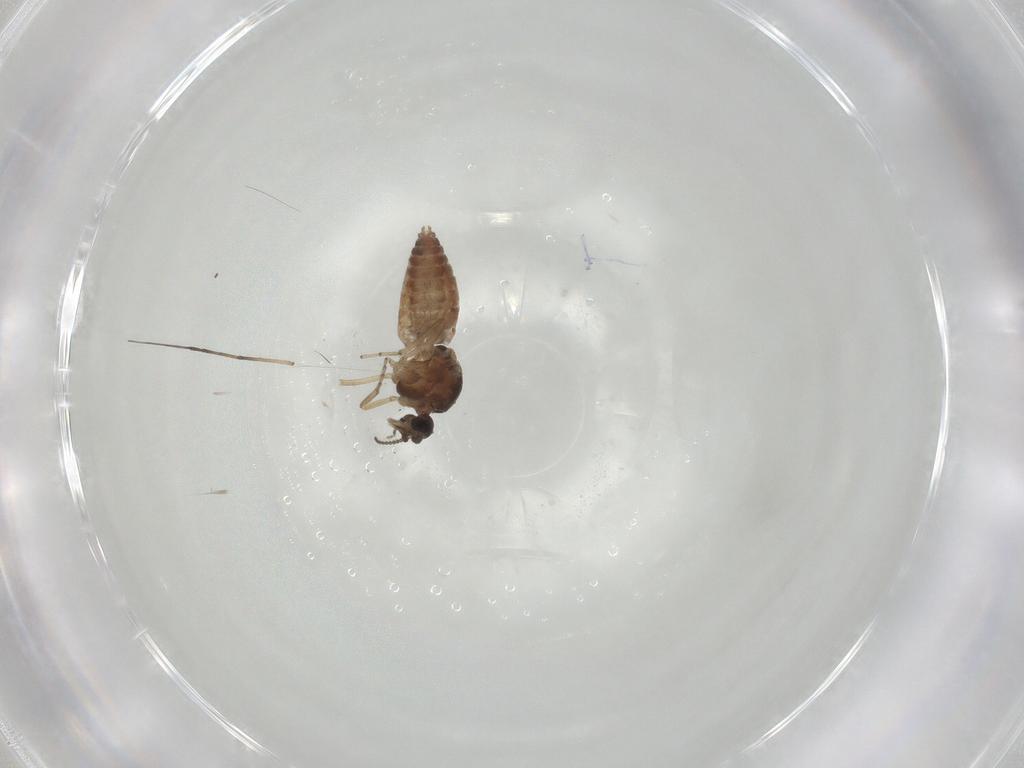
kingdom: Animalia
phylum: Arthropoda
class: Insecta
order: Diptera
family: Ceratopogonidae
